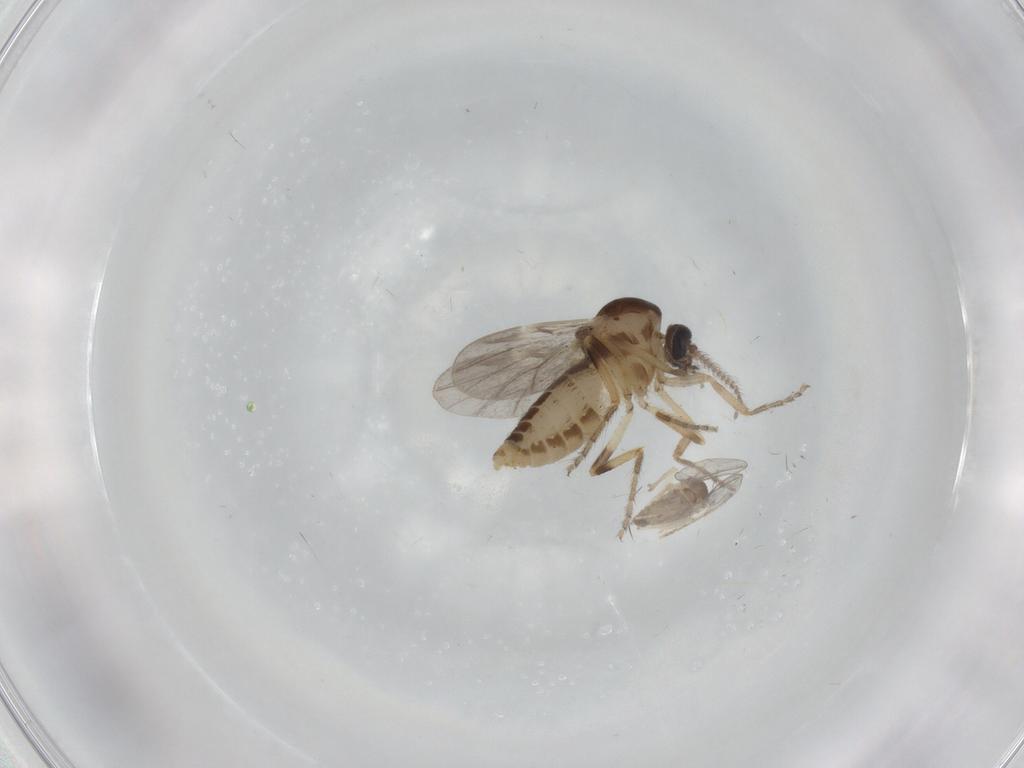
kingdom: Animalia
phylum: Arthropoda
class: Insecta
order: Diptera
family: Ceratopogonidae
